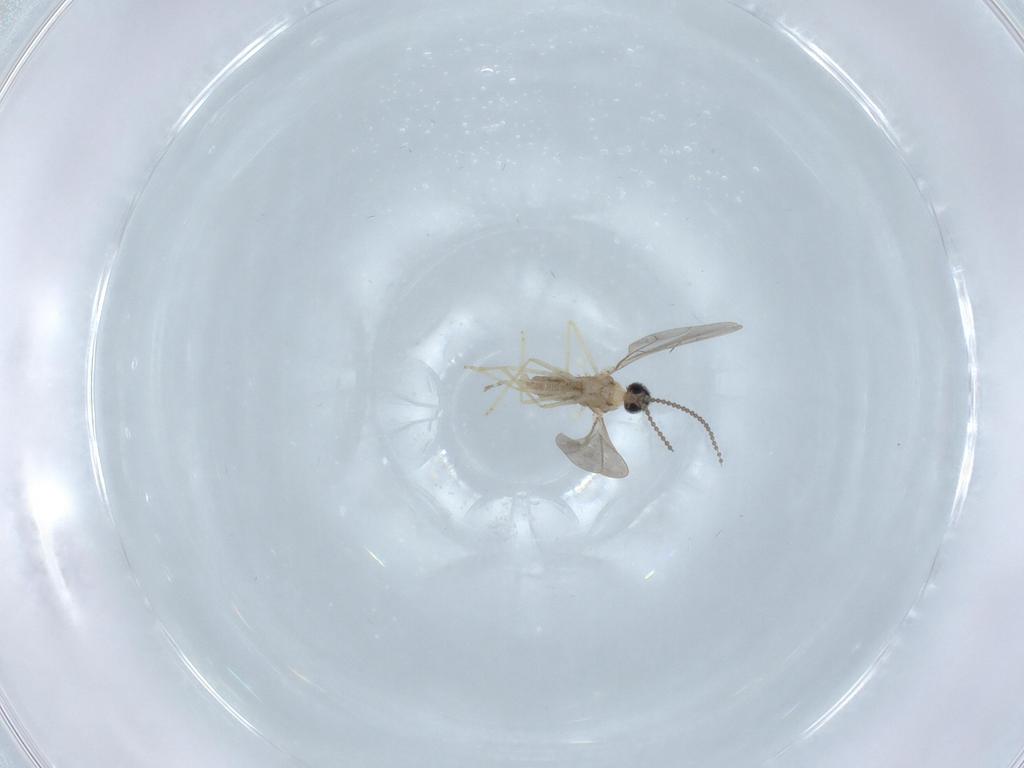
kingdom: Animalia
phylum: Arthropoda
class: Insecta
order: Diptera
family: Cecidomyiidae
